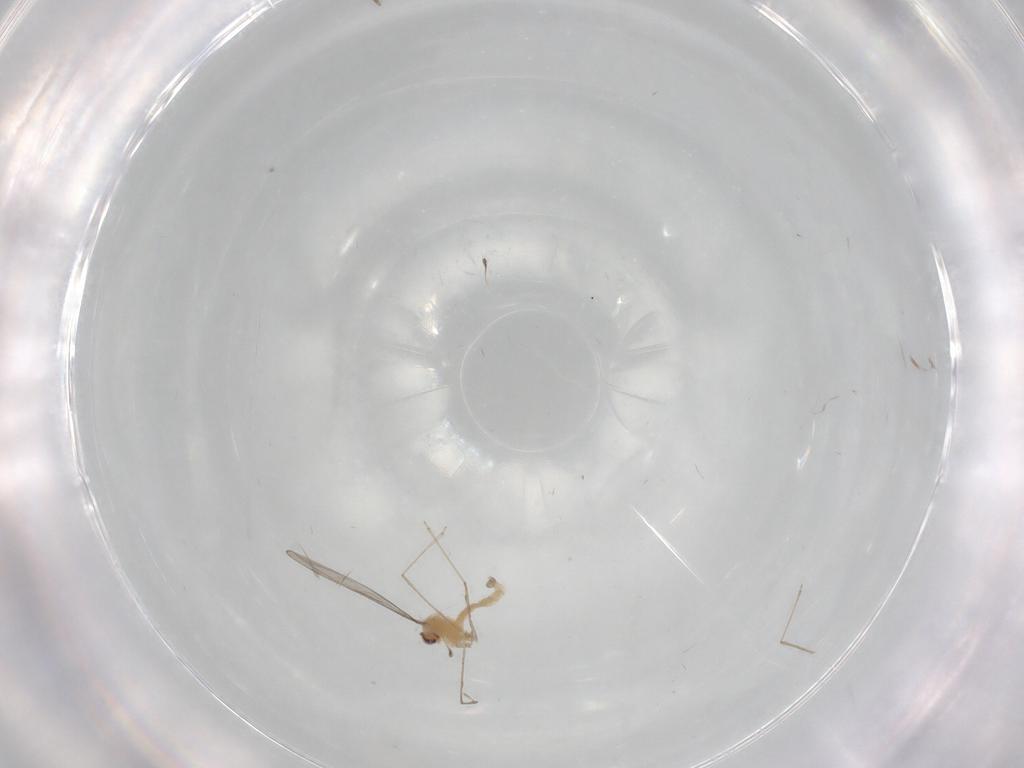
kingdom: Animalia
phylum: Arthropoda
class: Insecta
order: Diptera
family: Cecidomyiidae
